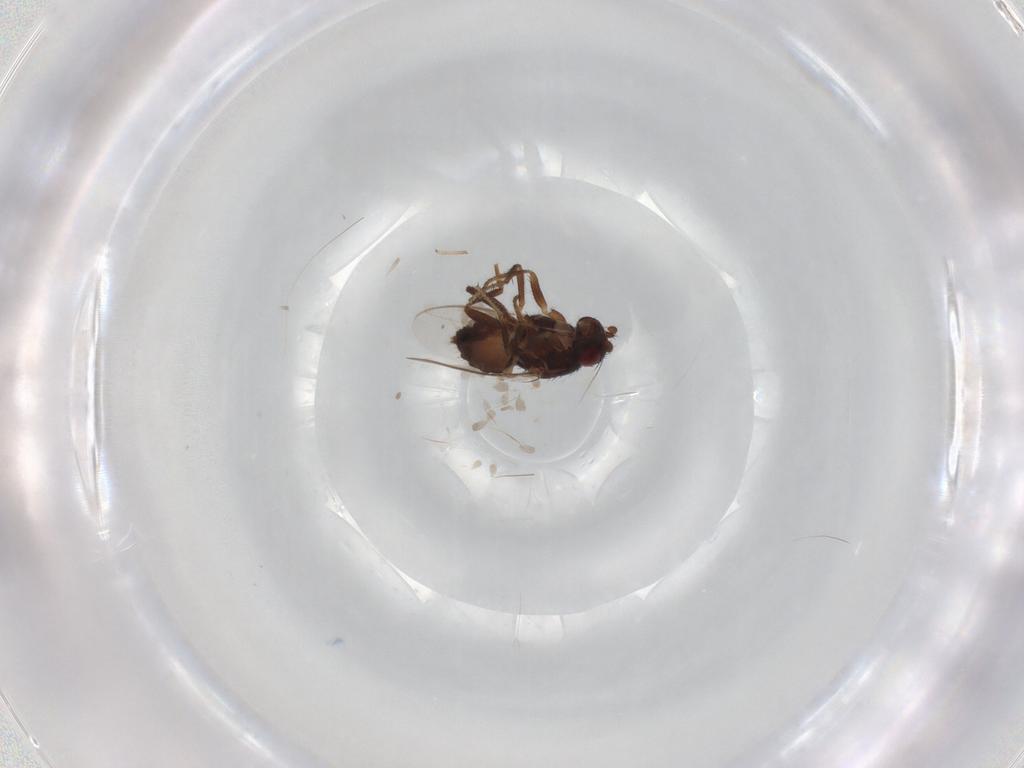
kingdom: Animalia
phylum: Arthropoda
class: Insecta
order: Diptera
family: Sphaeroceridae
